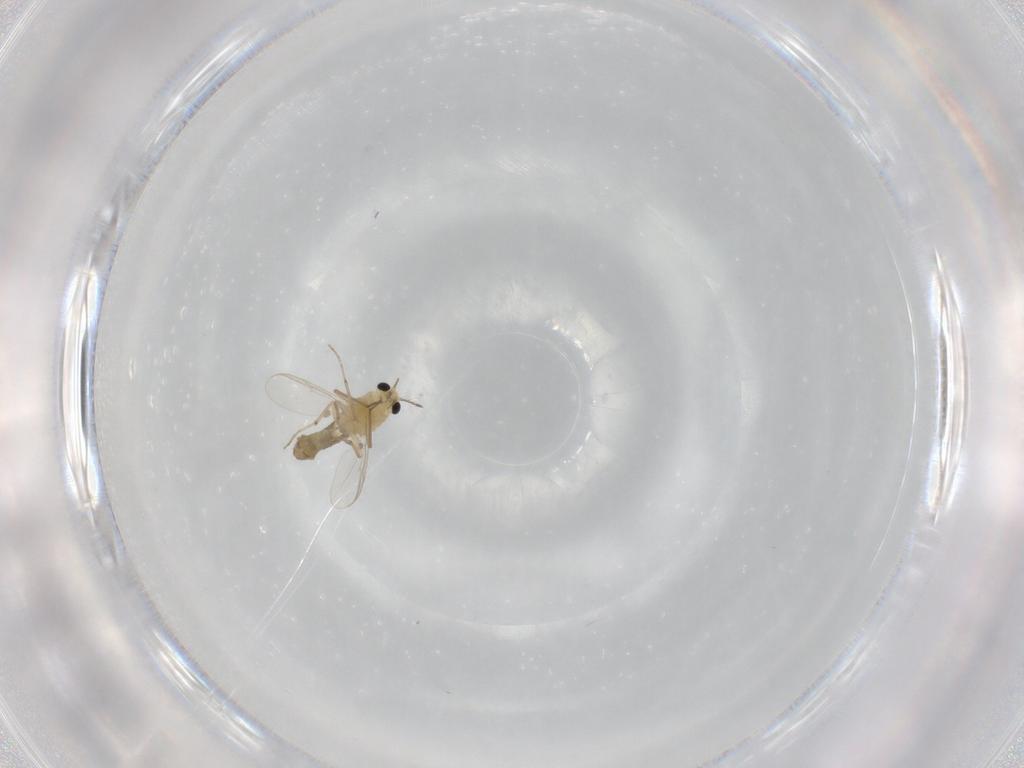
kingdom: Animalia
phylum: Arthropoda
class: Insecta
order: Diptera
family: Chironomidae
